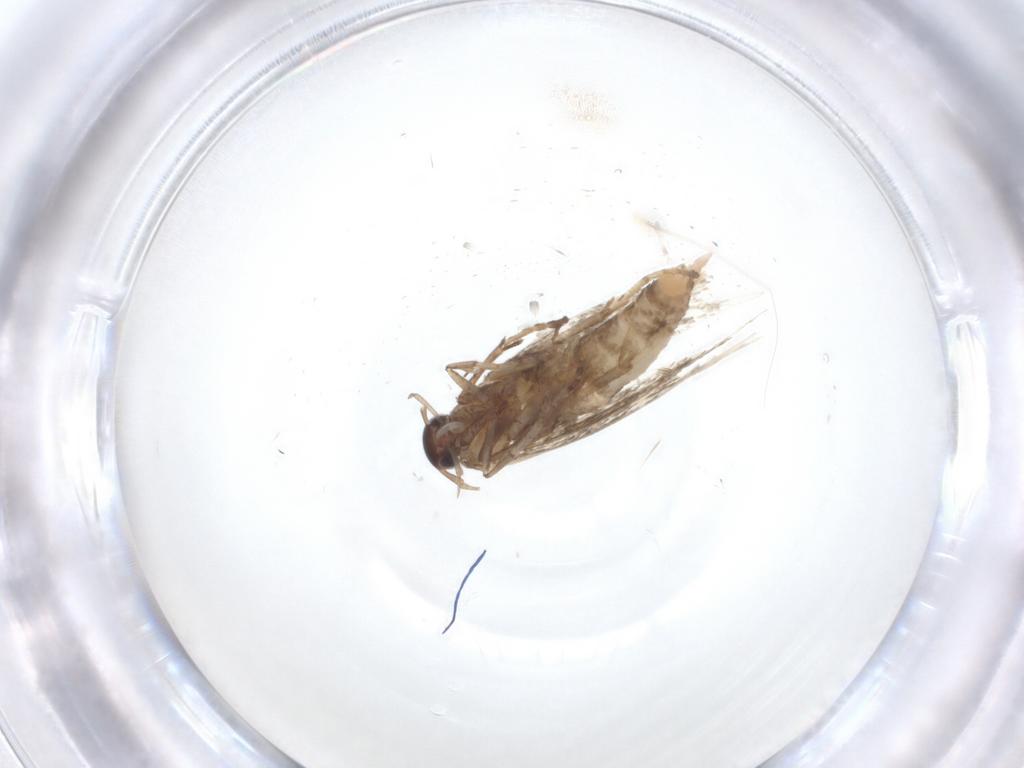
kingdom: Animalia
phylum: Arthropoda
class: Insecta
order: Lepidoptera
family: Momphidae
